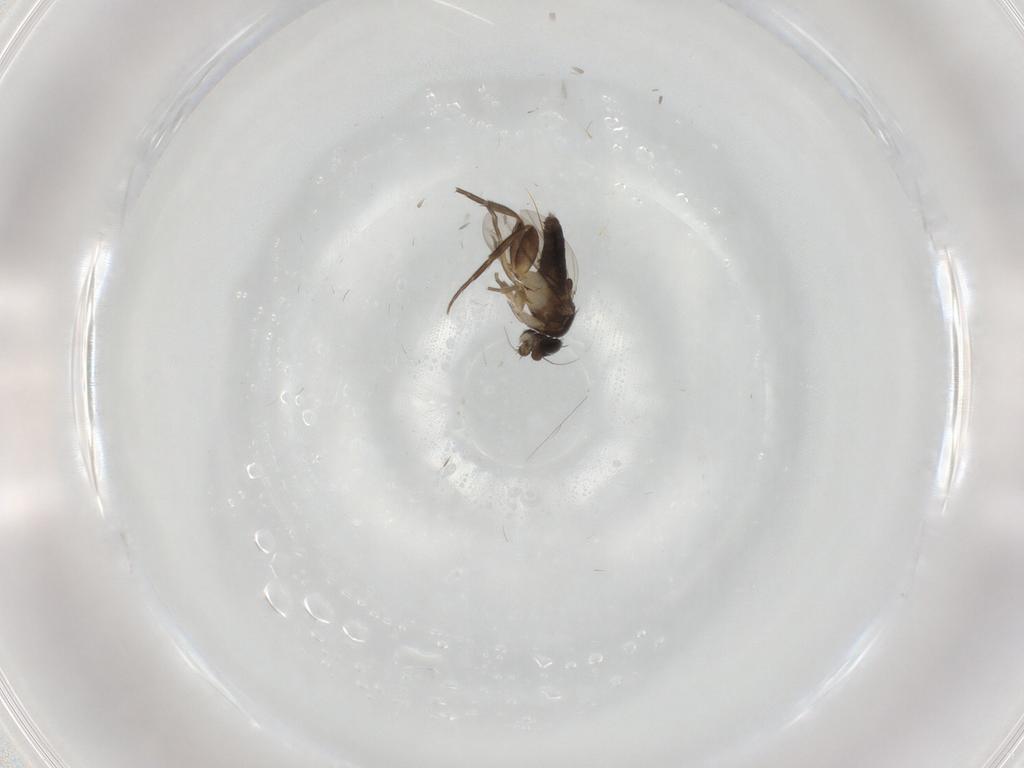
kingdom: Animalia
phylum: Arthropoda
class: Insecta
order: Diptera
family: Cecidomyiidae
